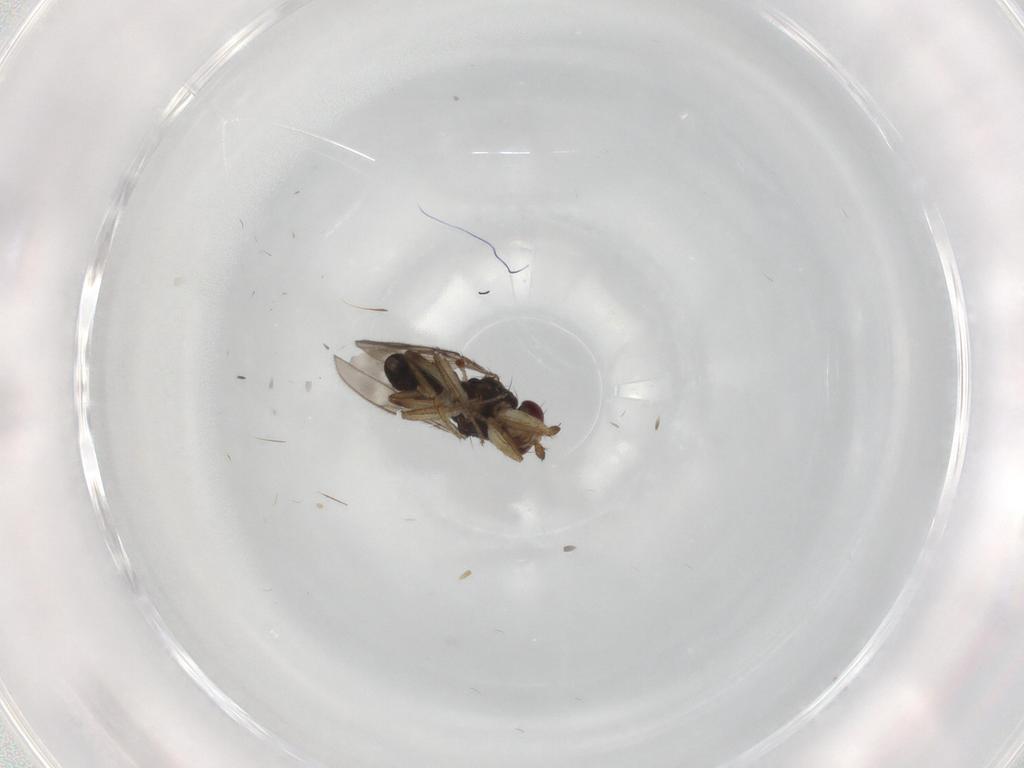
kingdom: Animalia
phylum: Arthropoda
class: Insecta
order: Diptera
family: Sphaeroceridae
